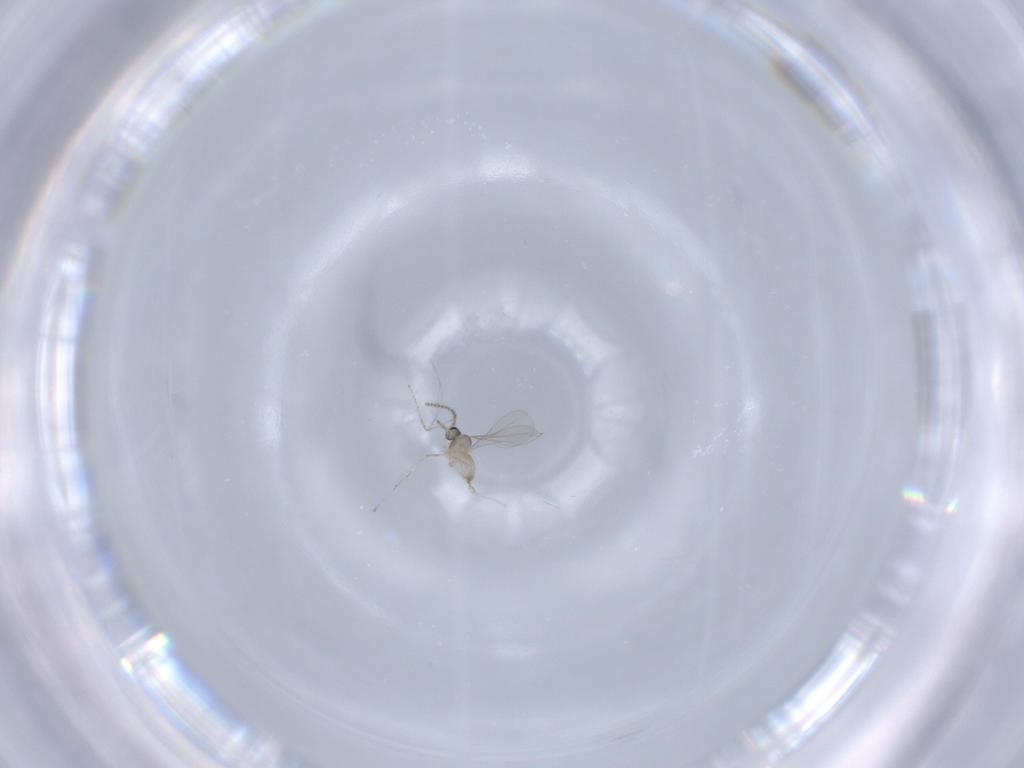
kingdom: Animalia
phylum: Arthropoda
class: Insecta
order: Diptera
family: Cecidomyiidae
